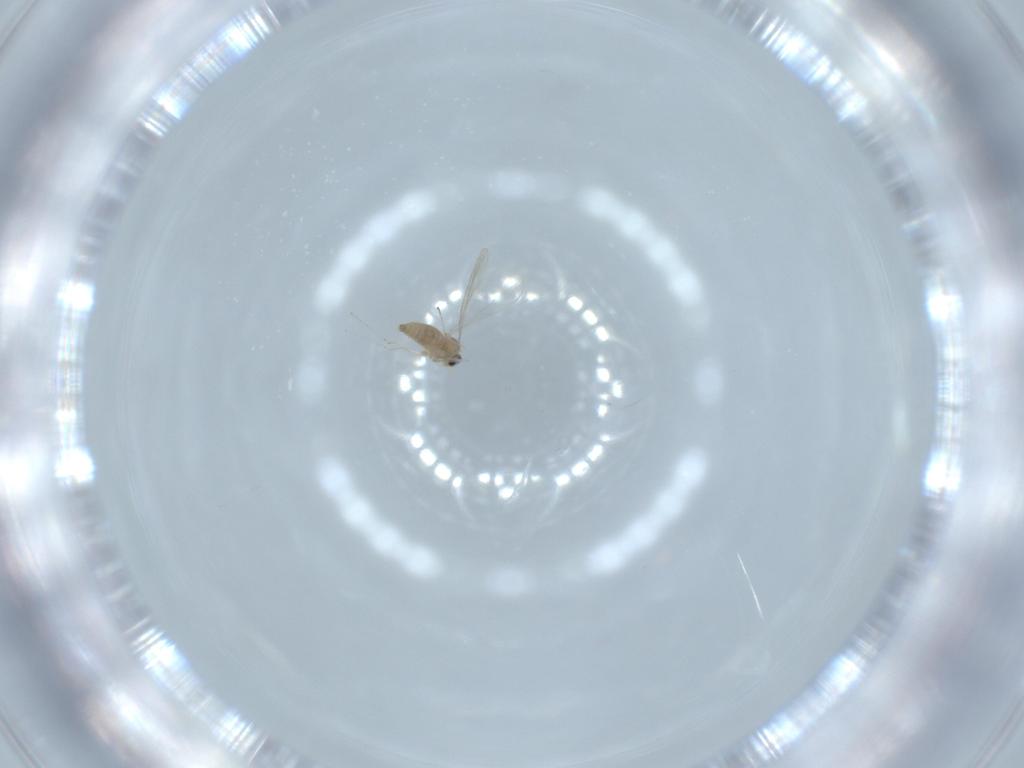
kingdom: Animalia
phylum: Arthropoda
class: Insecta
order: Diptera
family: Cecidomyiidae
